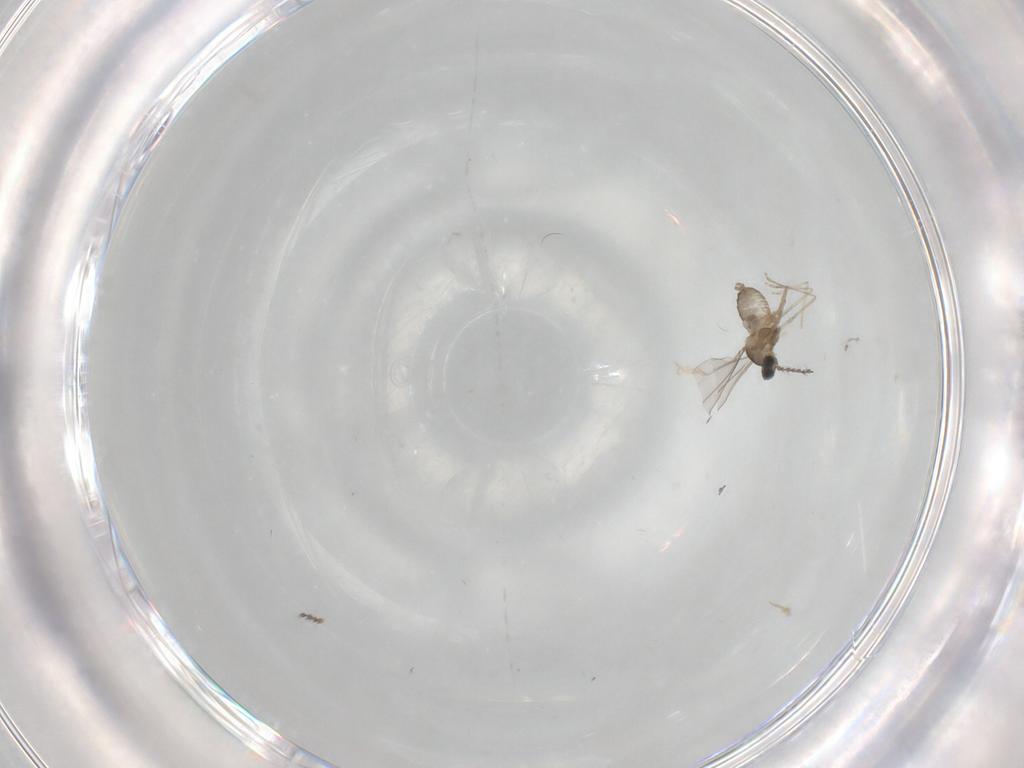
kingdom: Animalia
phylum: Arthropoda
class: Insecta
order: Diptera
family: Cecidomyiidae
